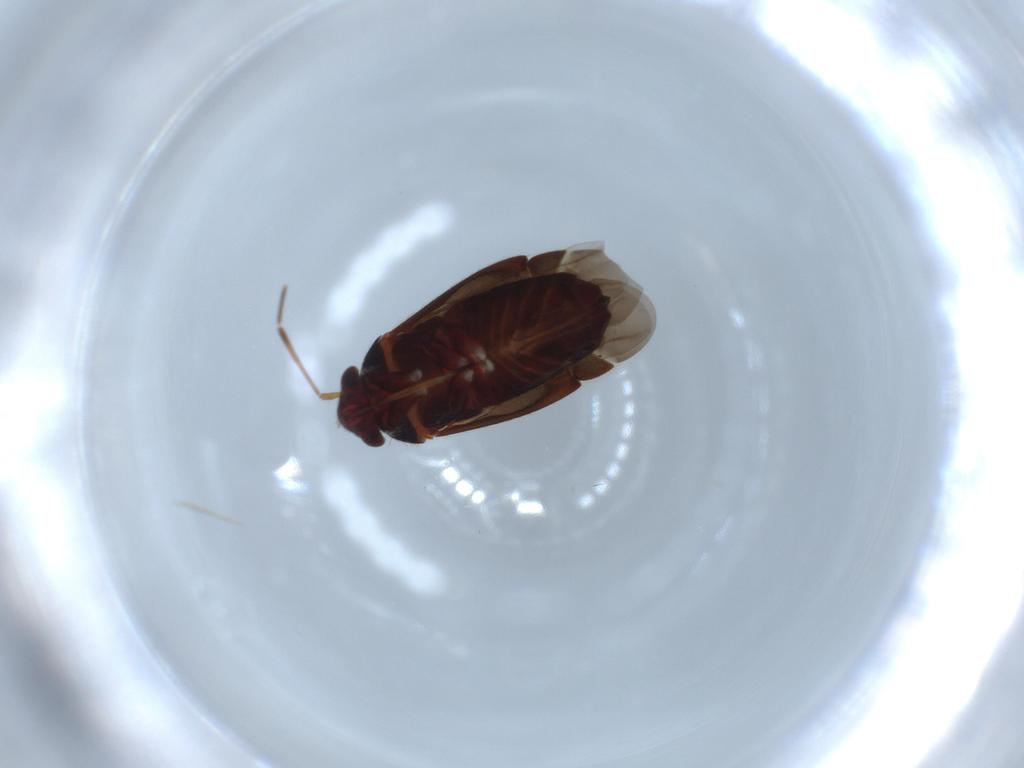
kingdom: Animalia
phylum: Arthropoda
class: Insecta
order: Hemiptera
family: Miridae
